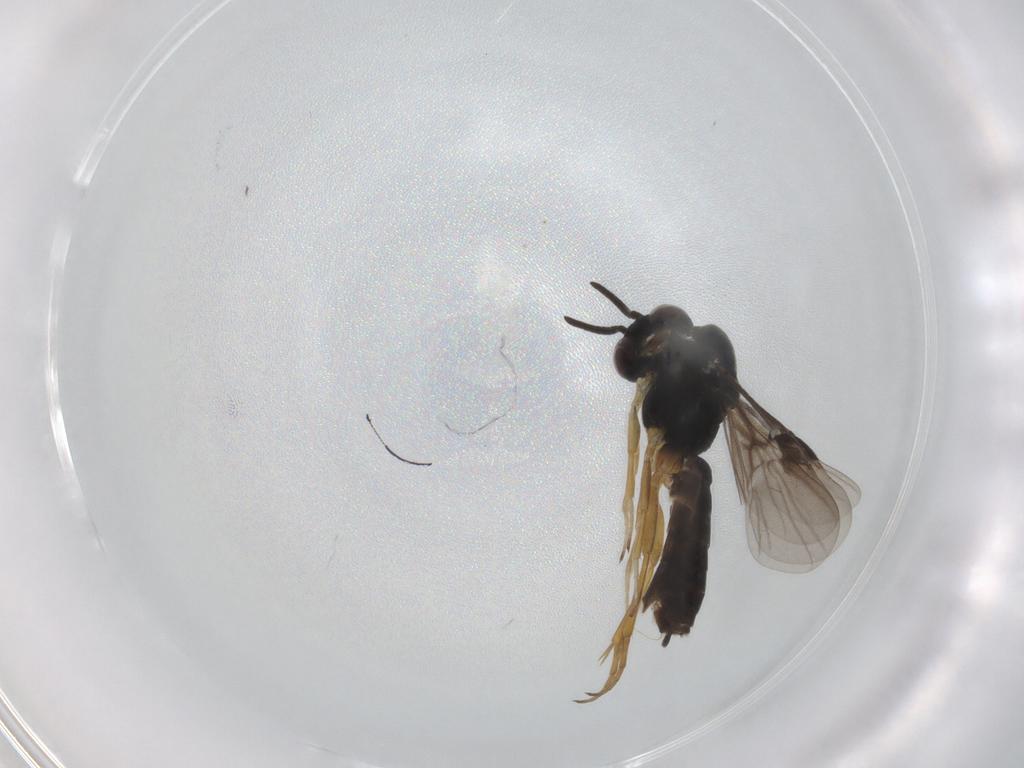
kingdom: Animalia
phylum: Arthropoda
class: Insecta
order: Hymenoptera
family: Braconidae
